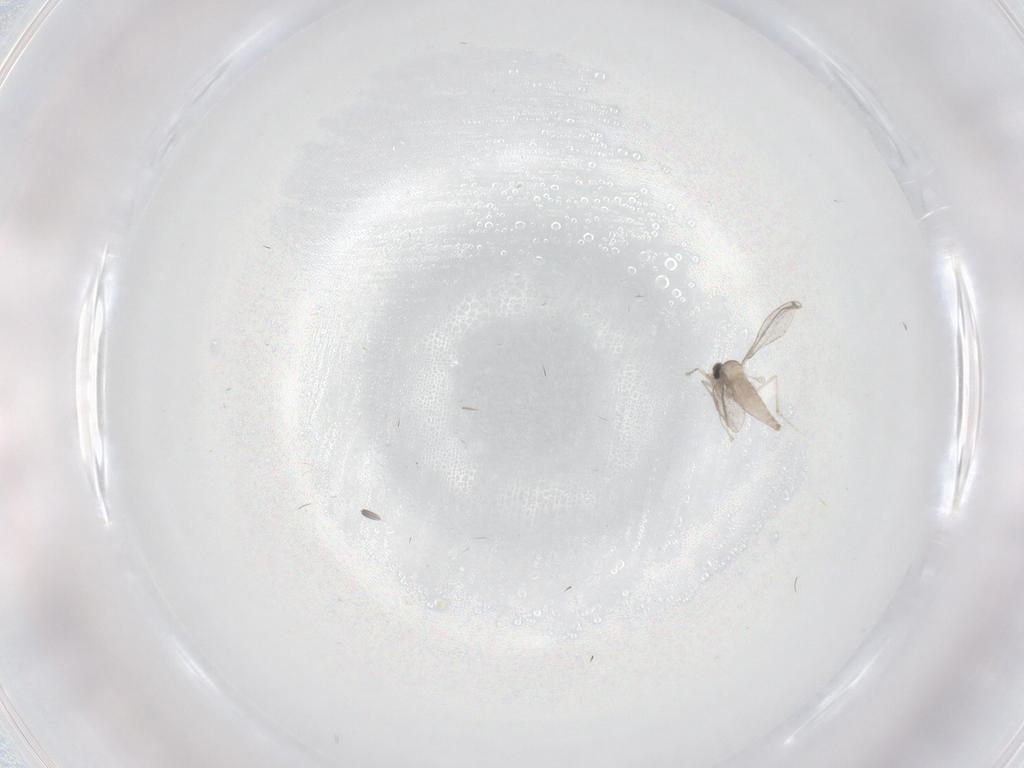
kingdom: Animalia
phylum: Arthropoda
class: Insecta
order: Diptera
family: Cecidomyiidae
